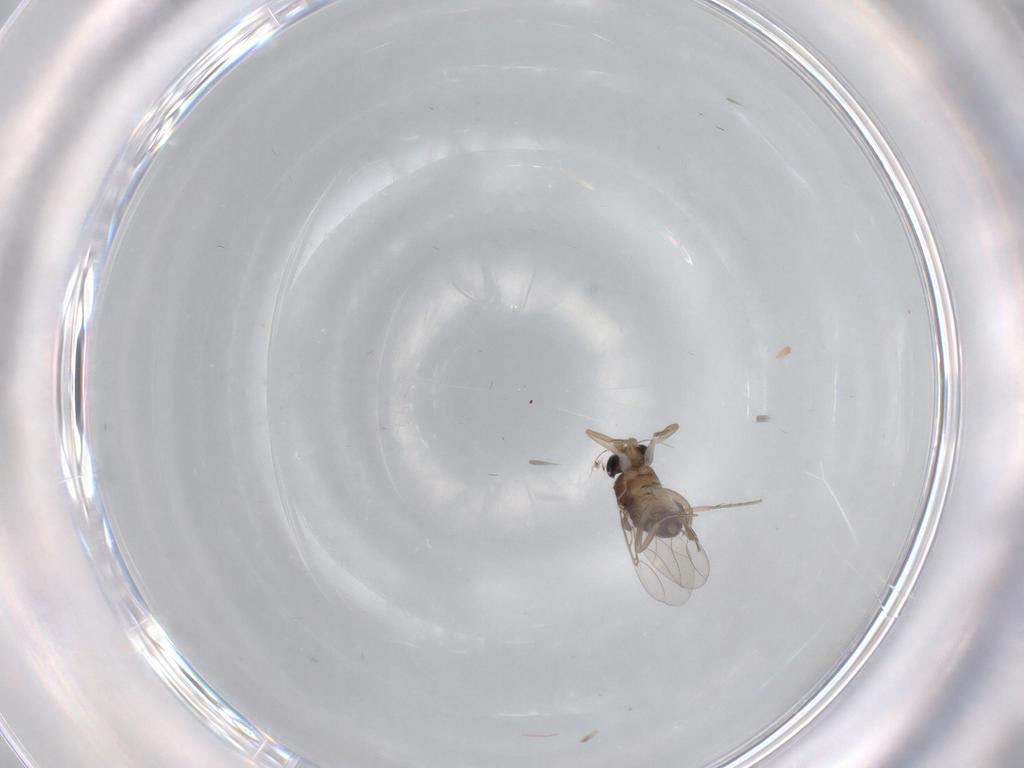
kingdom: Animalia
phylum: Arthropoda
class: Insecta
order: Diptera
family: Phoridae
